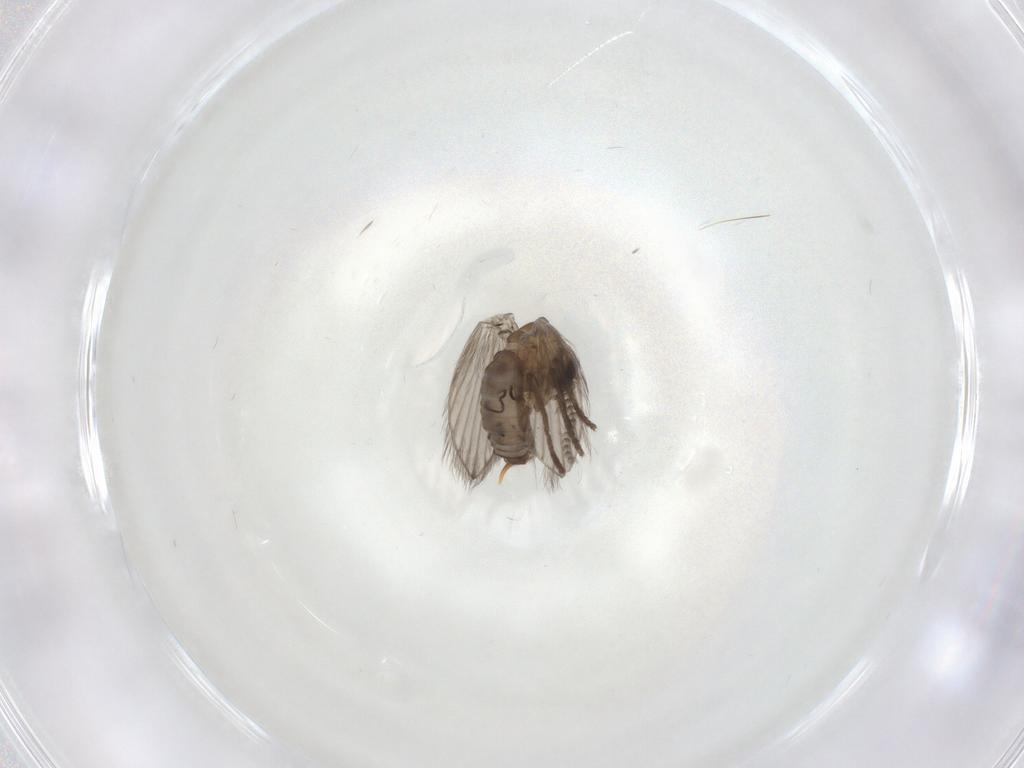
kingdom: Animalia
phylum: Arthropoda
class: Insecta
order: Diptera
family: Psychodidae
